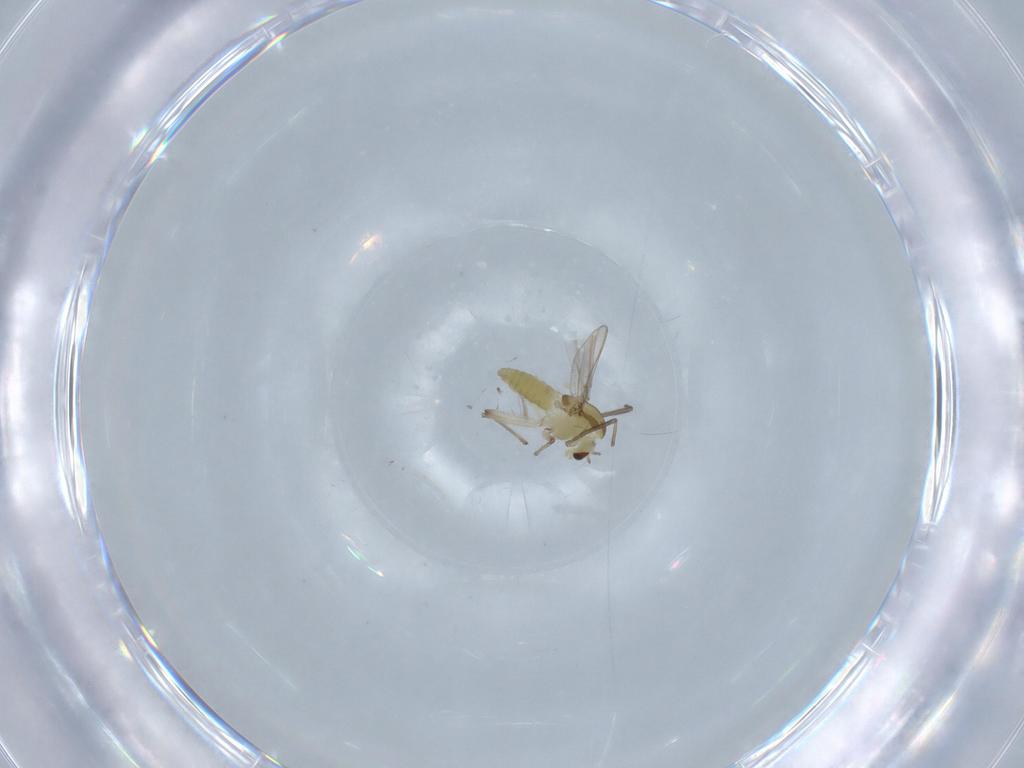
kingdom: Animalia
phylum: Arthropoda
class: Insecta
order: Diptera
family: Chironomidae
